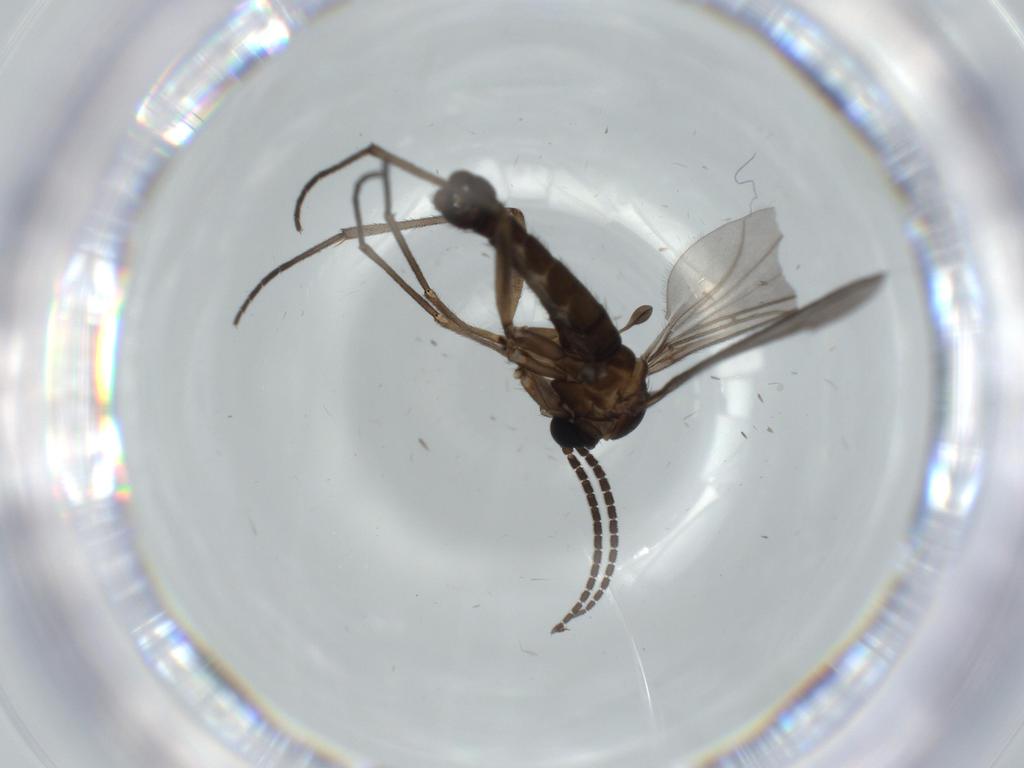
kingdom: Animalia
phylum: Arthropoda
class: Insecta
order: Diptera
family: Sciaridae
